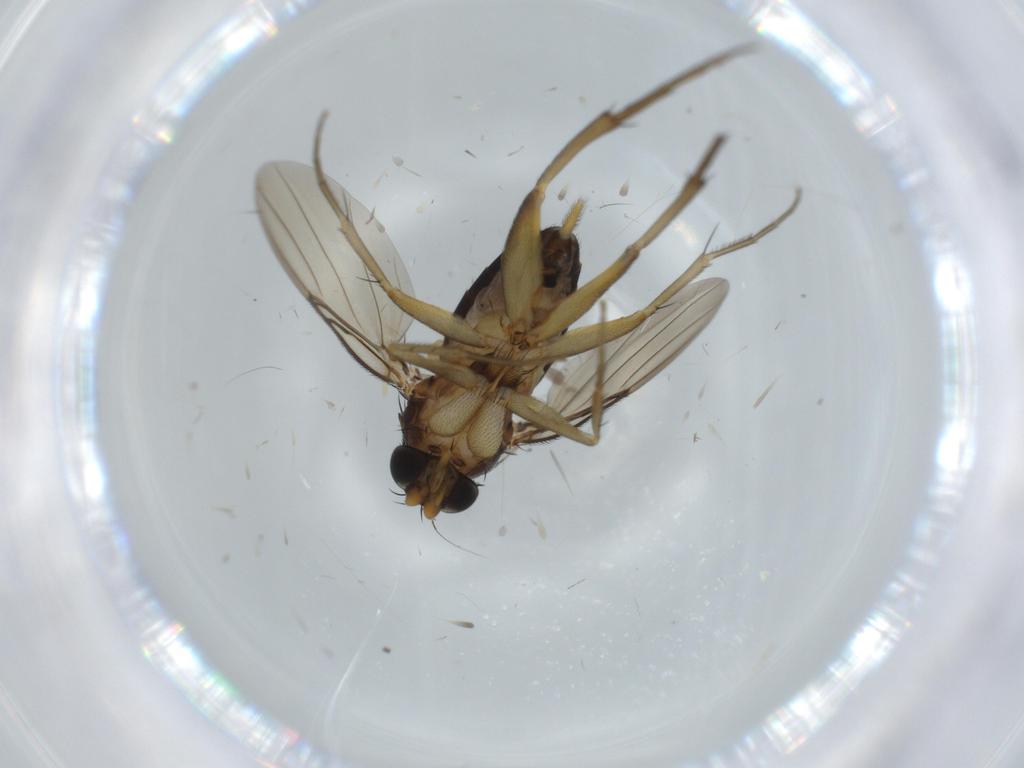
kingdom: Animalia
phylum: Arthropoda
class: Insecta
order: Diptera
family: Phoridae
